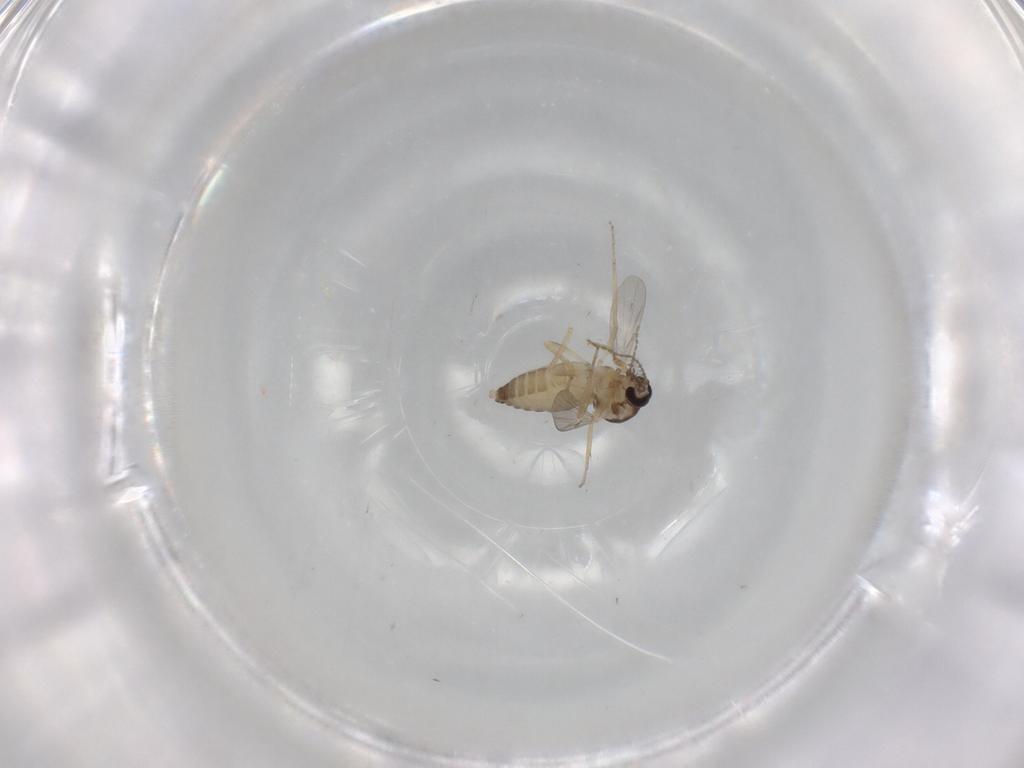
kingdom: Animalia
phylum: Arthropoda
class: Insecta
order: Diptera
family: Ceratopogonidae
